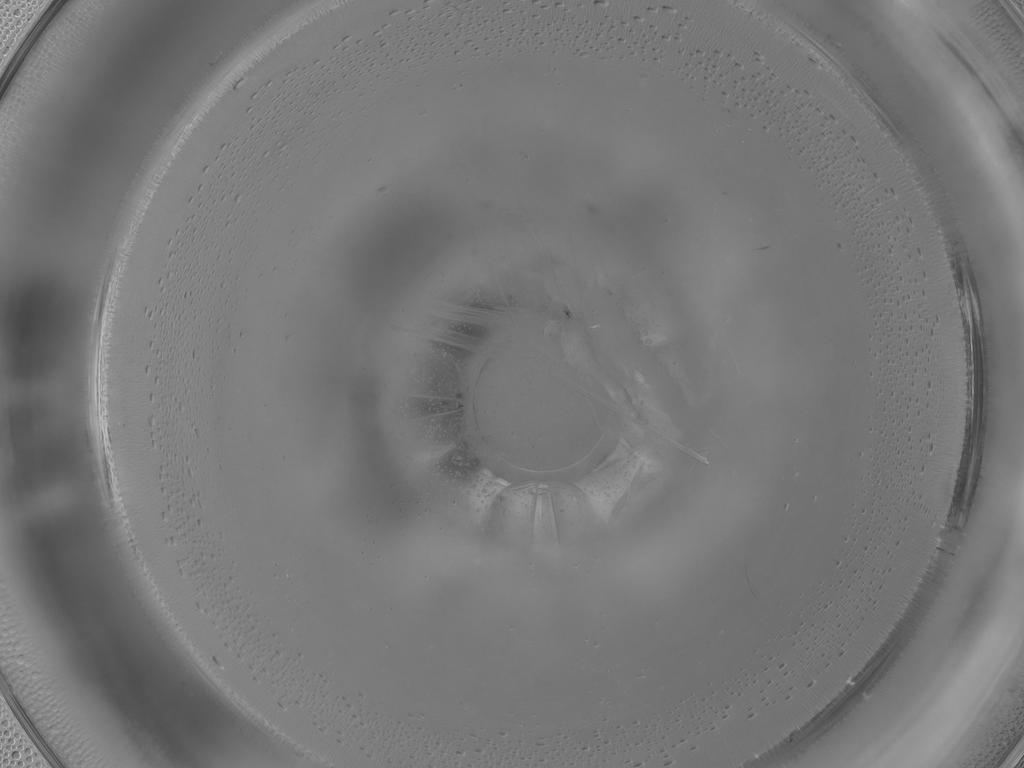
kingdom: Animalia
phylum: Arthropoda
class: Insecta
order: Diptera
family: Limoniidae
